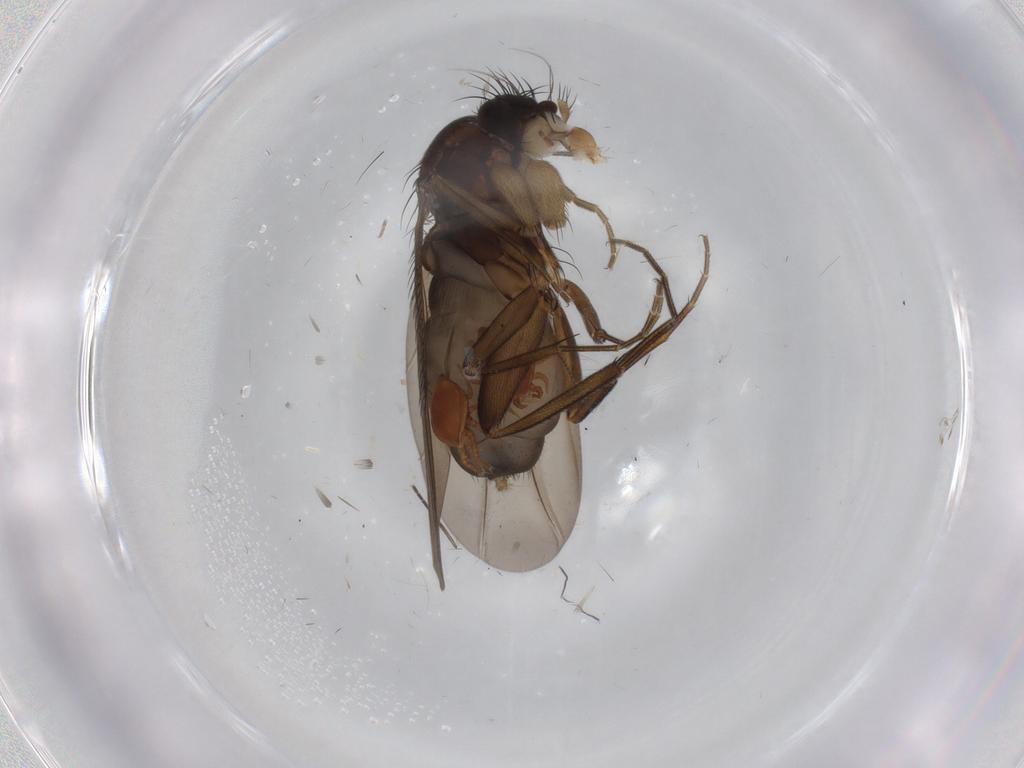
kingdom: Animalia
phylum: Arthropoda
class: Insecta
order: Diptera
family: Phoridae
